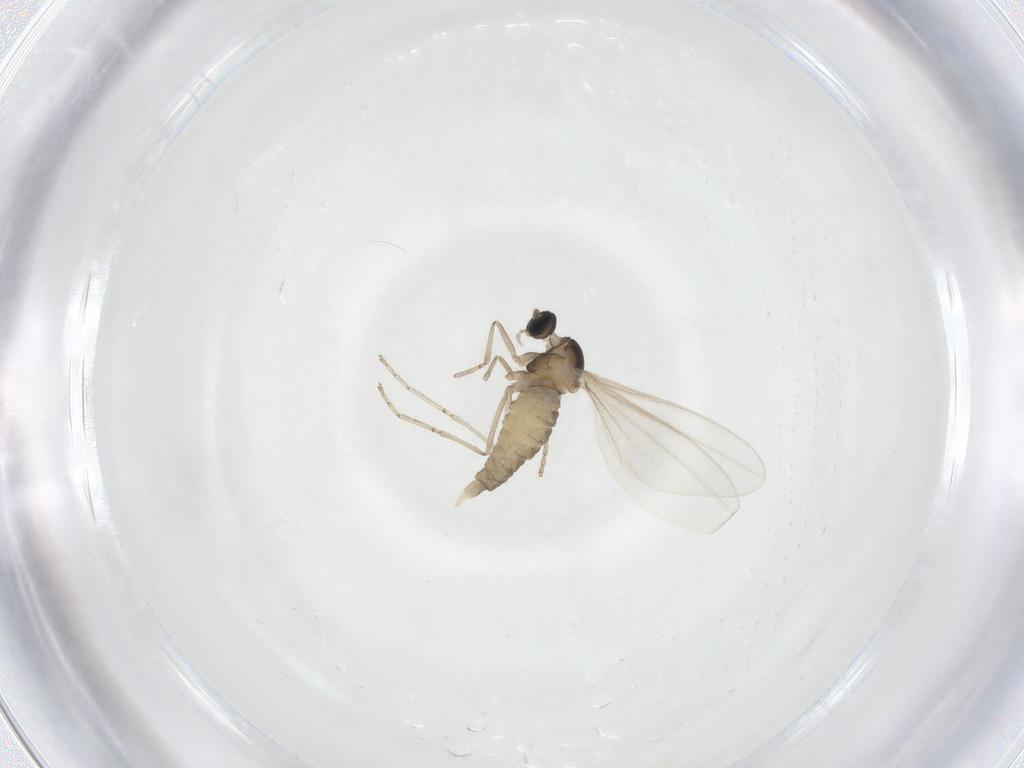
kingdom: Animalia
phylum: Arthropoda
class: Insecta
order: Diptera
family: Cecidomyiidae
